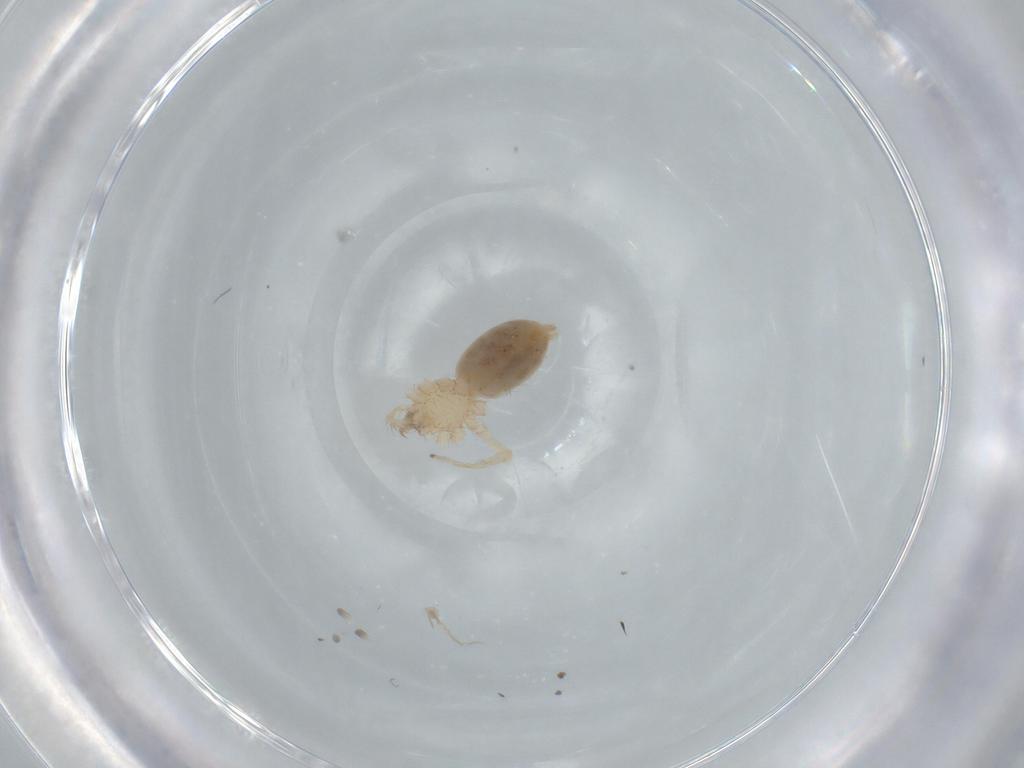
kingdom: Animalia
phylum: Arthropoda
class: Arachnida
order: Araneae
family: Oonopidae
